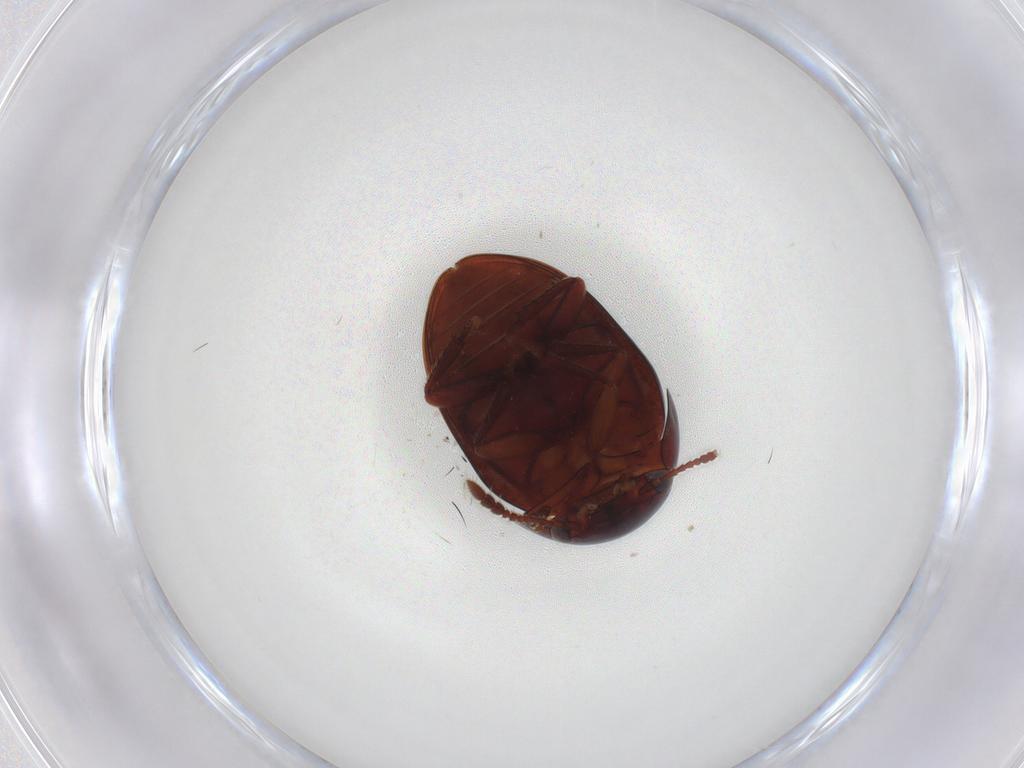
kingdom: Animalia
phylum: Arthropoda
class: Insecta
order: Coleoptera
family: Leiodidae
